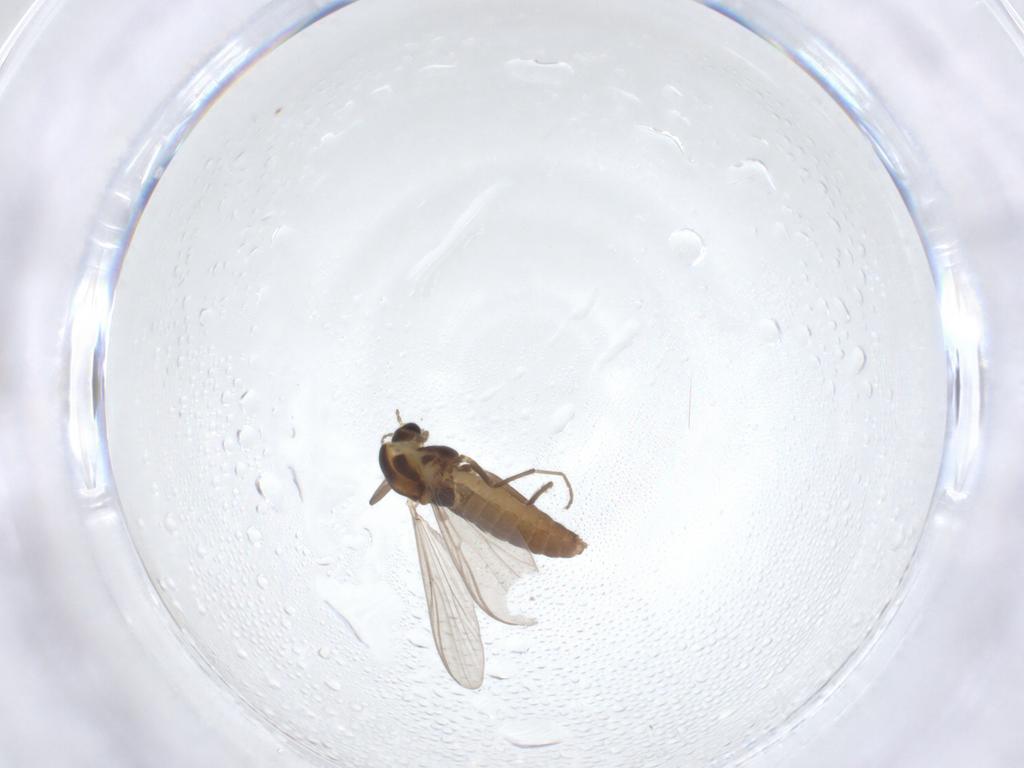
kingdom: Animalia
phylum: Arthropoda
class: Insecta
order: Diptera
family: Chironomidae
